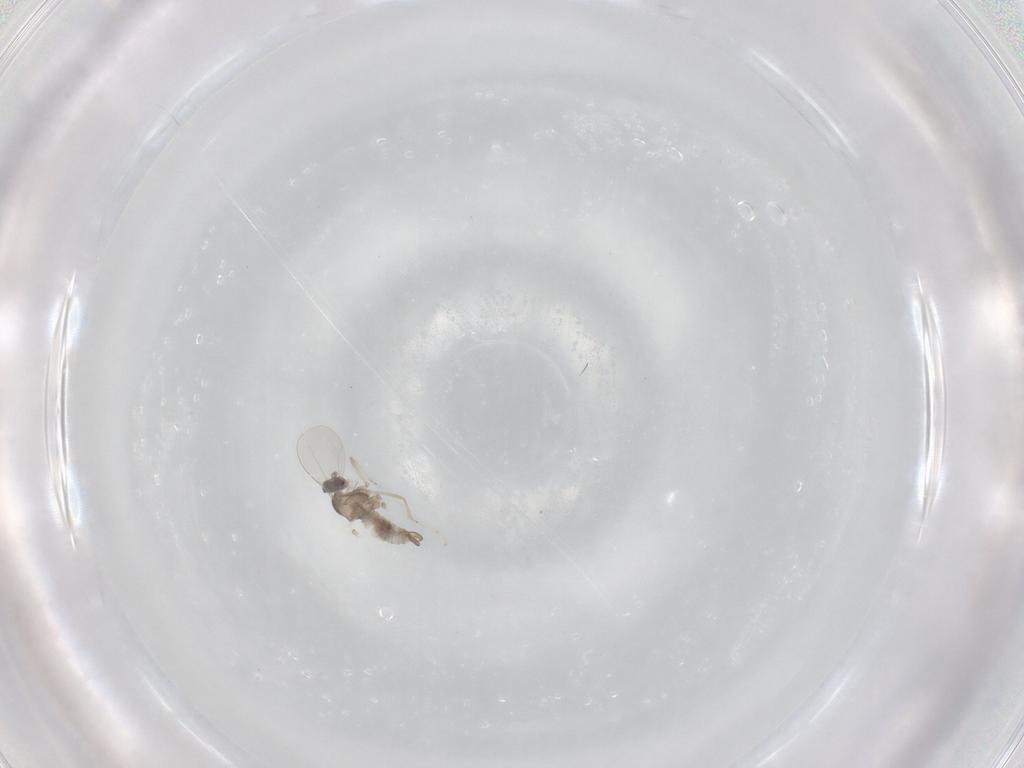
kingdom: Animalia
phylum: Arthropoda
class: Insecta
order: Diptera
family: Cecidomyiidae
